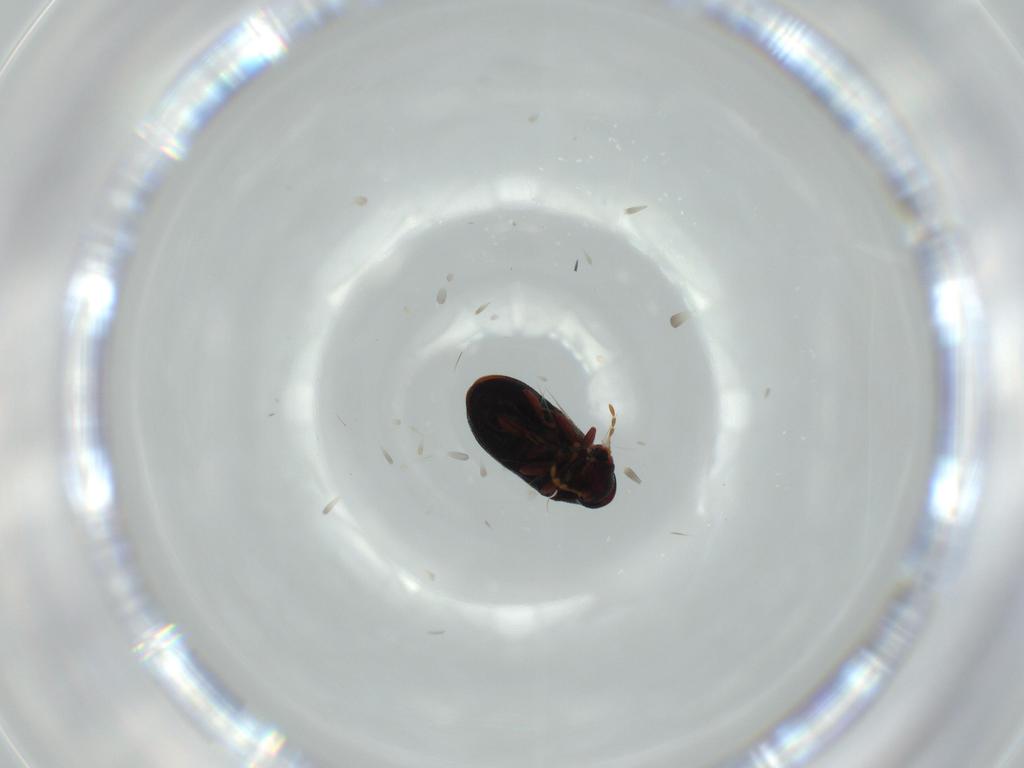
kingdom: Animalia
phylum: Arthropoda
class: Insecta
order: Coleoptera
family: Ptinidae
